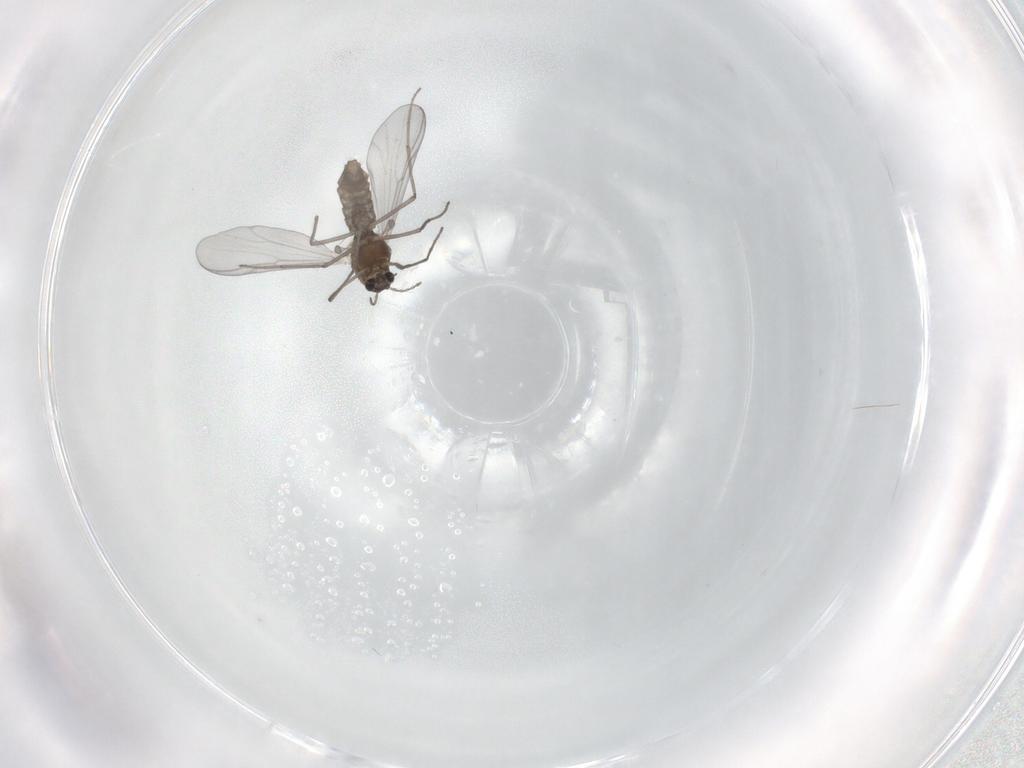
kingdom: Animalia
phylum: Arthropoda
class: Insecta
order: Diptera
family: Chironomidae
